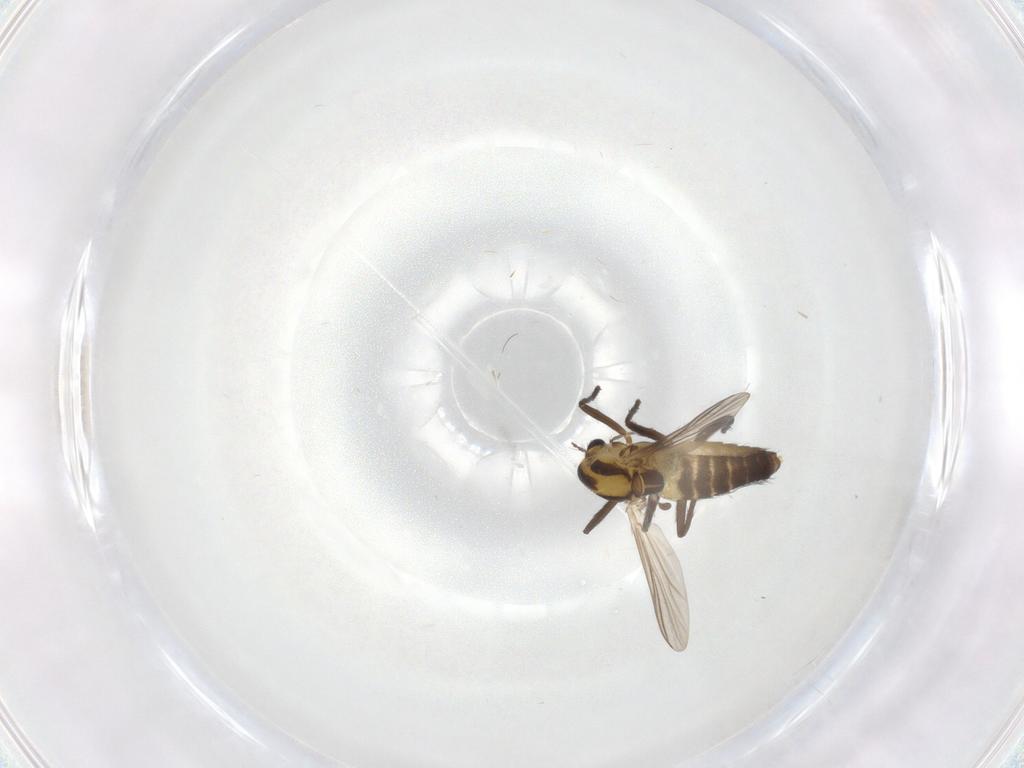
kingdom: Animalia
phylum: Arthropoda
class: Insecta
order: Diptera
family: Chironomidae
